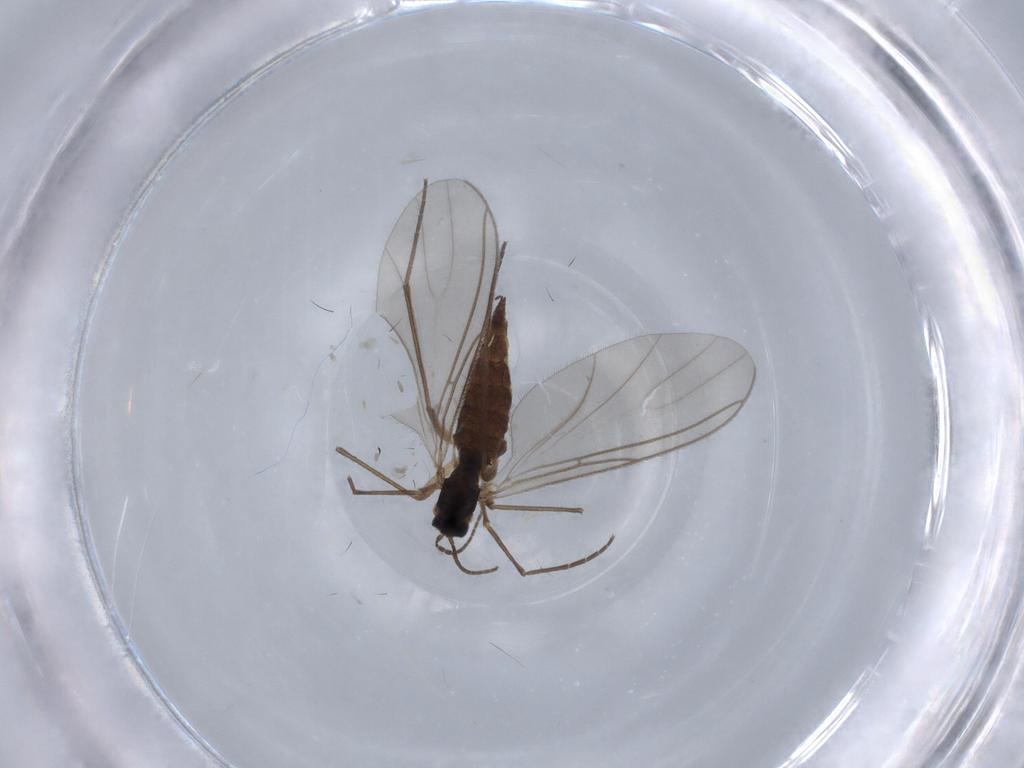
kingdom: Animalia
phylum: Arthropoda
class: Insecta
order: Diptera
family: Sciaridae
